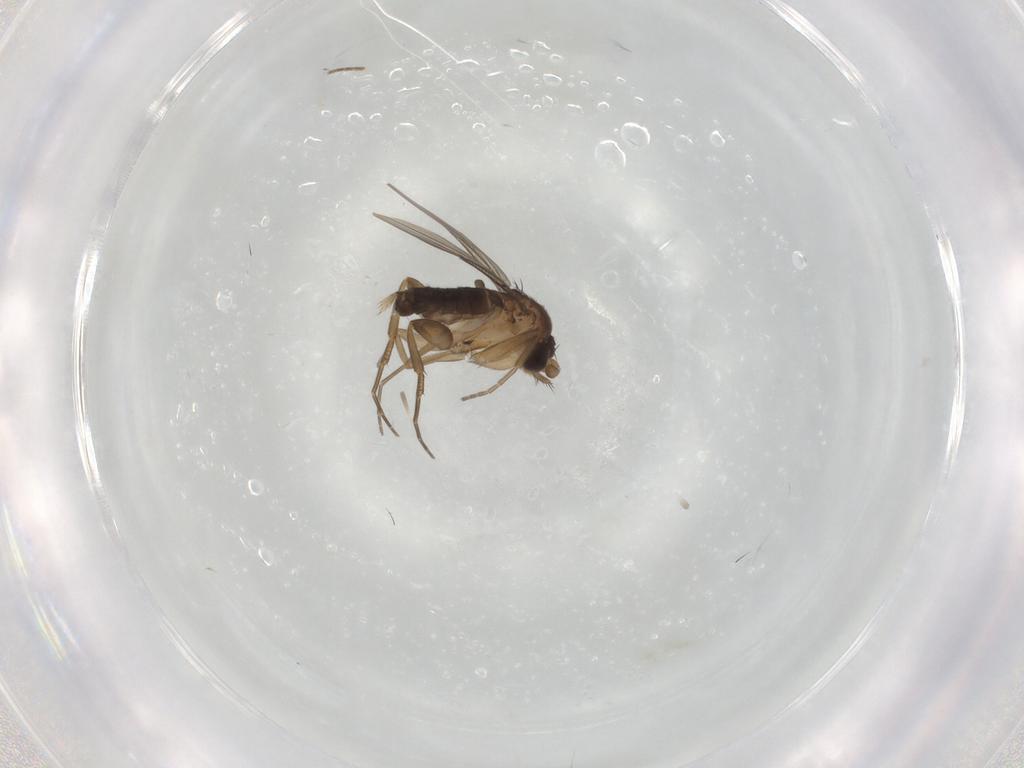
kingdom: Animalia
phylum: Arthropoda
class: Insecta
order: Diptera
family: Phoridae
